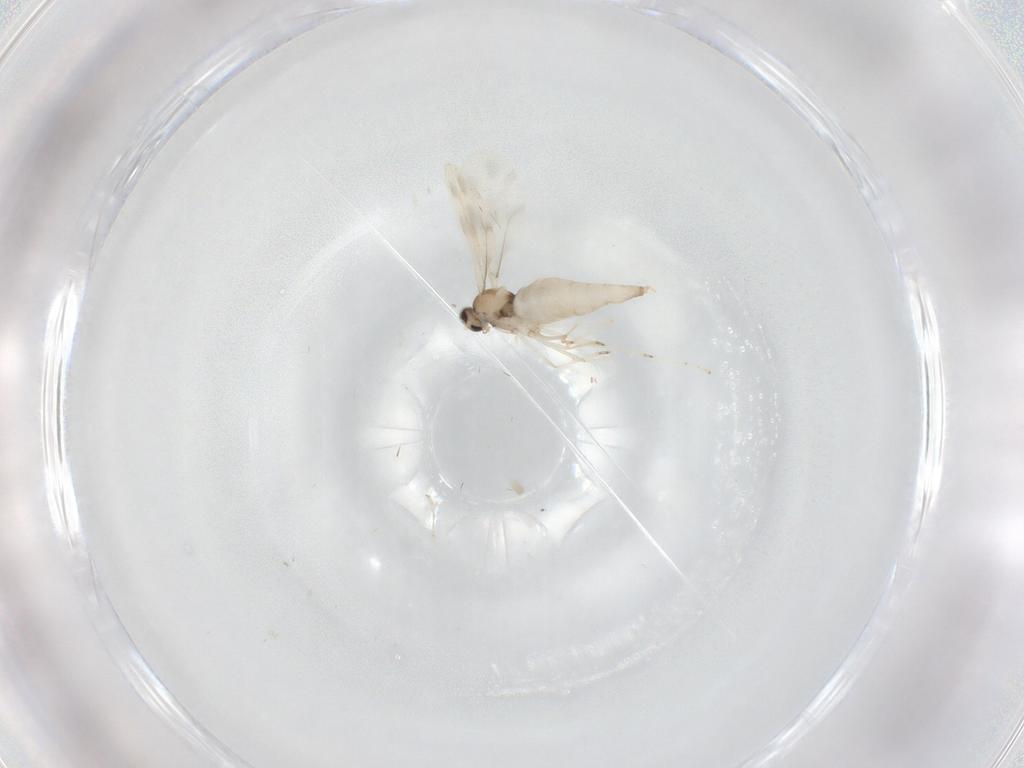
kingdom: Animalia
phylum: Arthropoda
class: Insecta
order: Diptera
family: Cecidomyiidae
